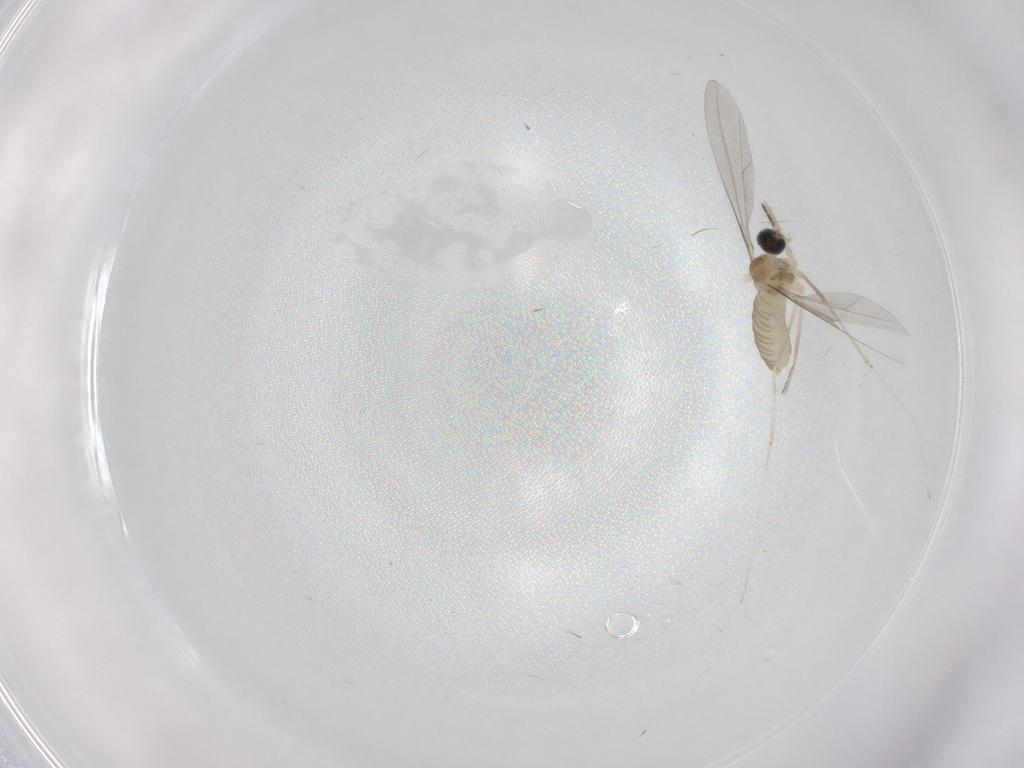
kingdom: Animalia
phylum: Arthropoda
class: Insecta
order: Diptera
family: Cecidomyiidae
